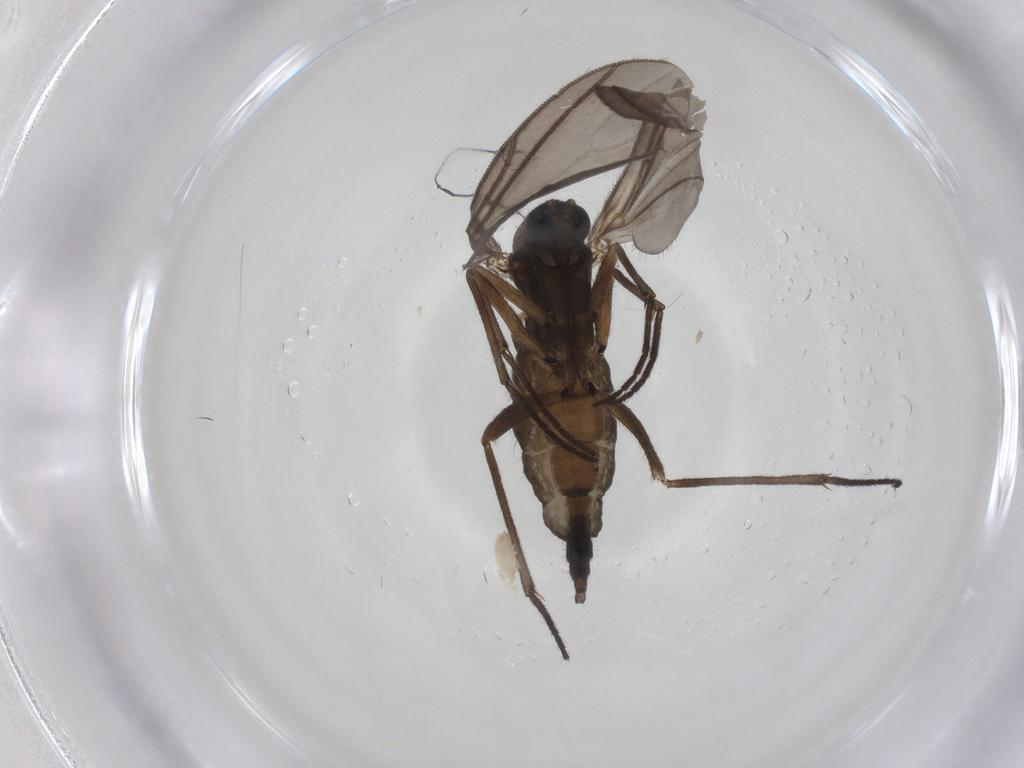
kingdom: Animalia
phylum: Arthropoda
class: Insecta
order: Diptera
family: Sciaridae
